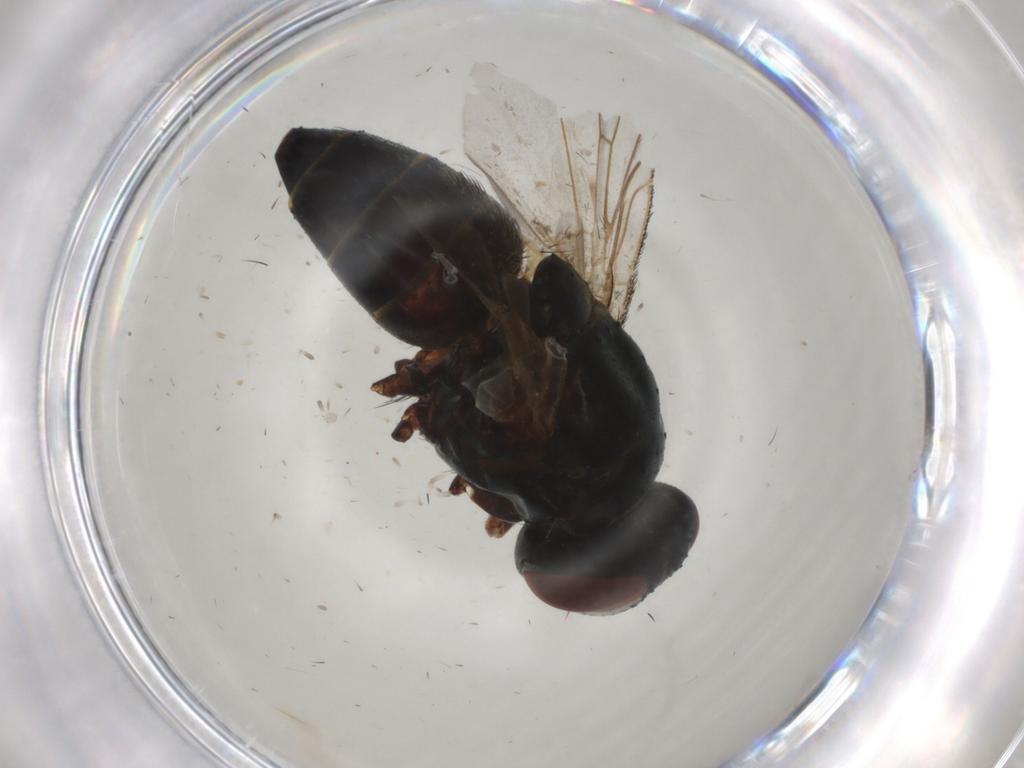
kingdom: Animalia
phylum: Arthropoda
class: Insecta
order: Diptera
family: Sarcophagidae
